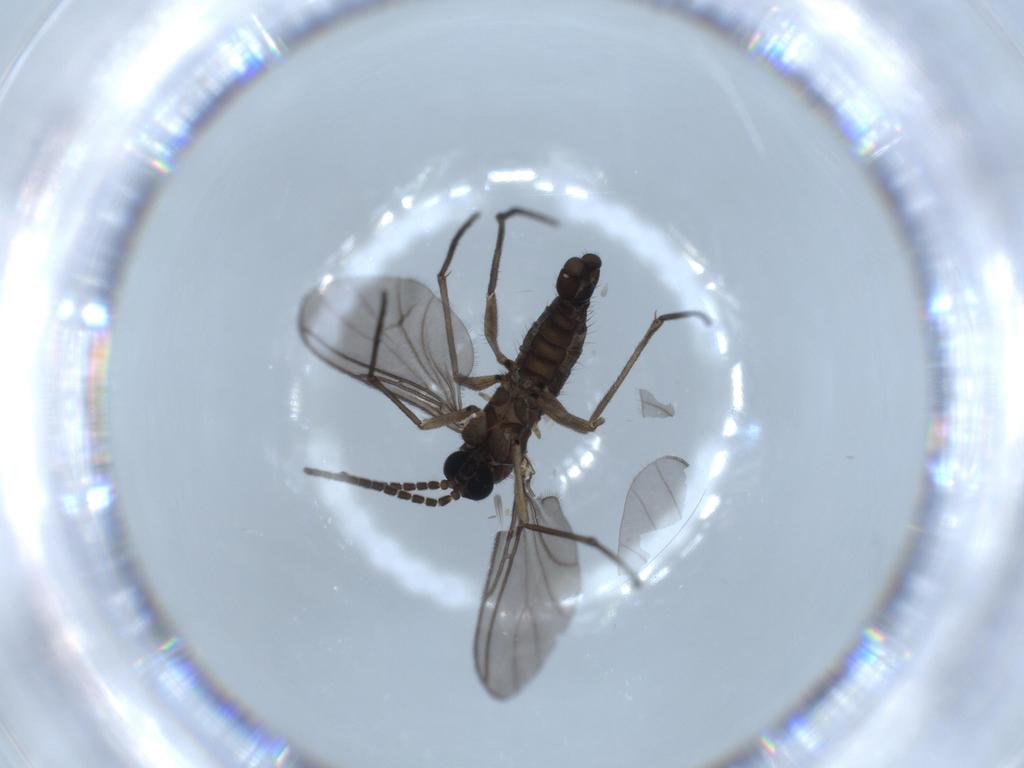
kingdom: Animalia
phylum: Arthropoda
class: Insecta
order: Diptera
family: Sciaridae
